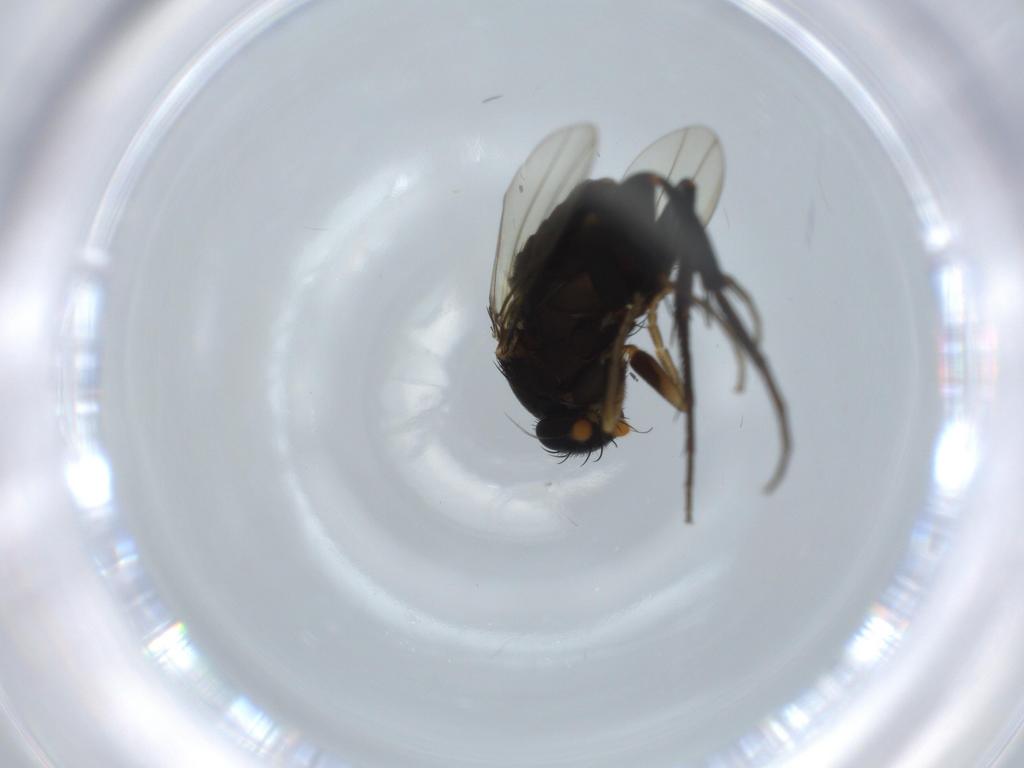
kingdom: Animalia
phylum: Arthropoda
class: Insecta
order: Diptera
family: Phoridae
